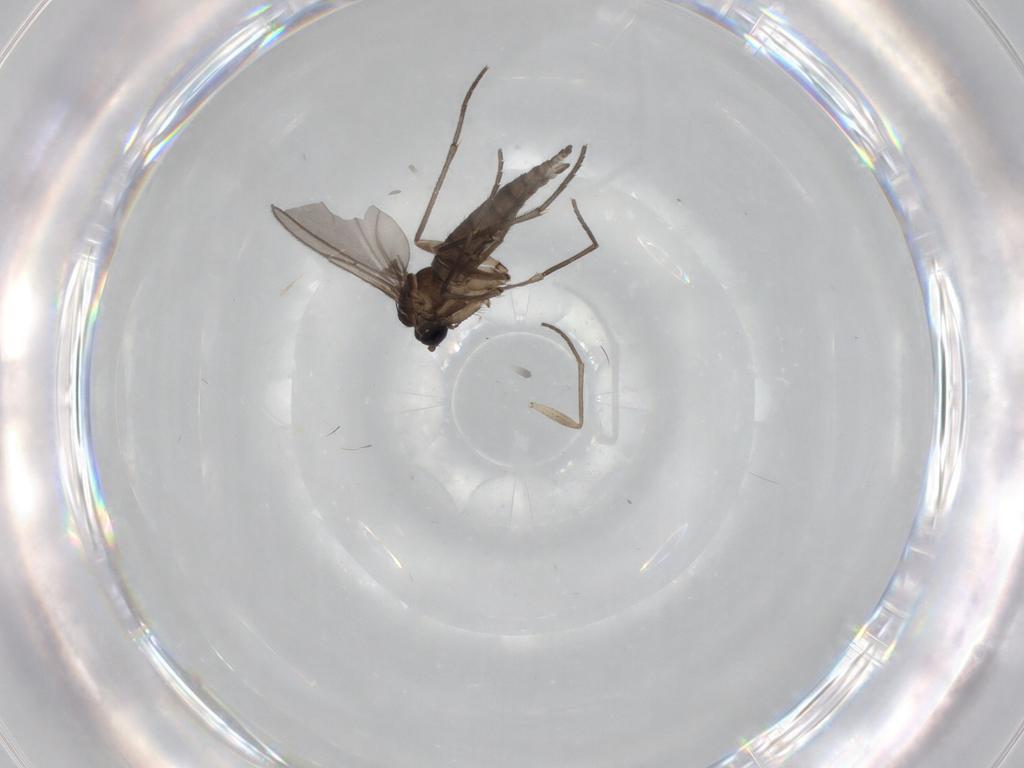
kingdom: Animalia
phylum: Arthropoda
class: Insecta
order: Diptera
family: Sciaridae
